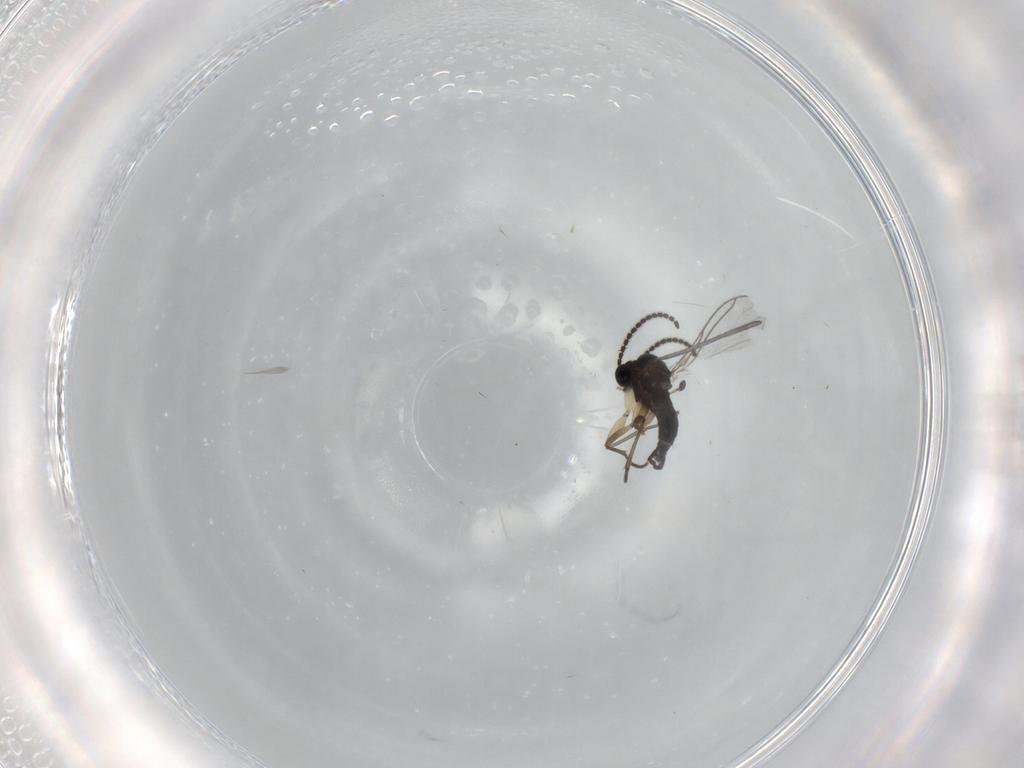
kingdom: Animalia
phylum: Arthropoda
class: Insecta
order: Diptera
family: Sciaridae
